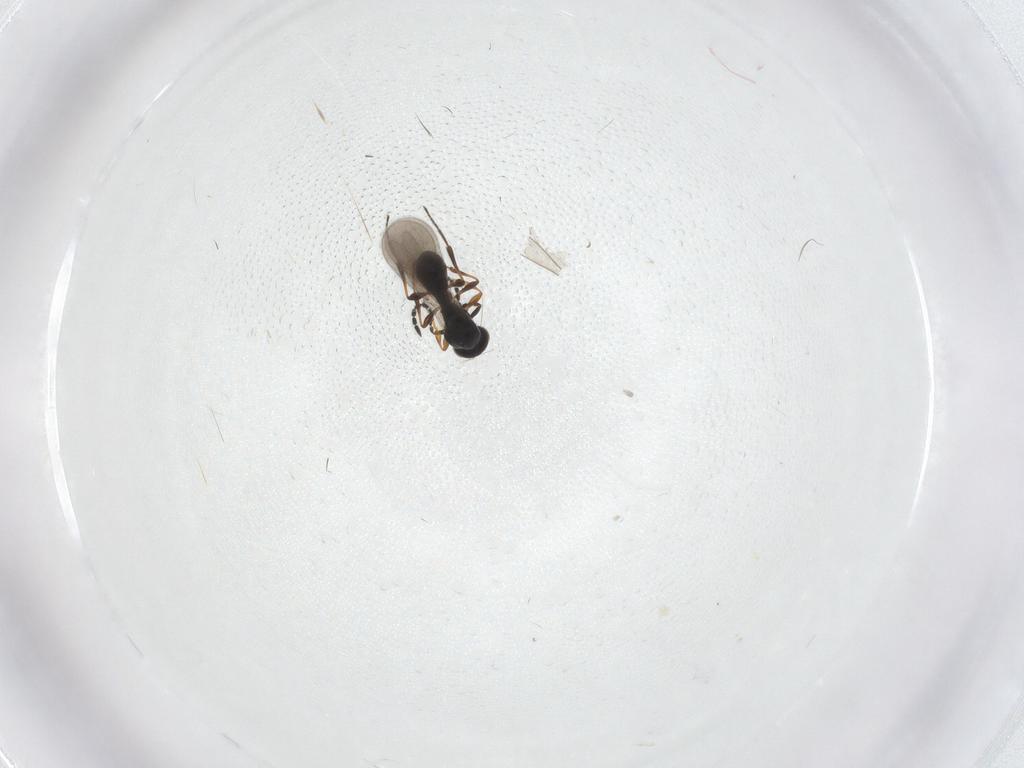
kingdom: Animalia
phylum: Arthropoda
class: Insecta
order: Hymenoptera
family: Platygastridae
